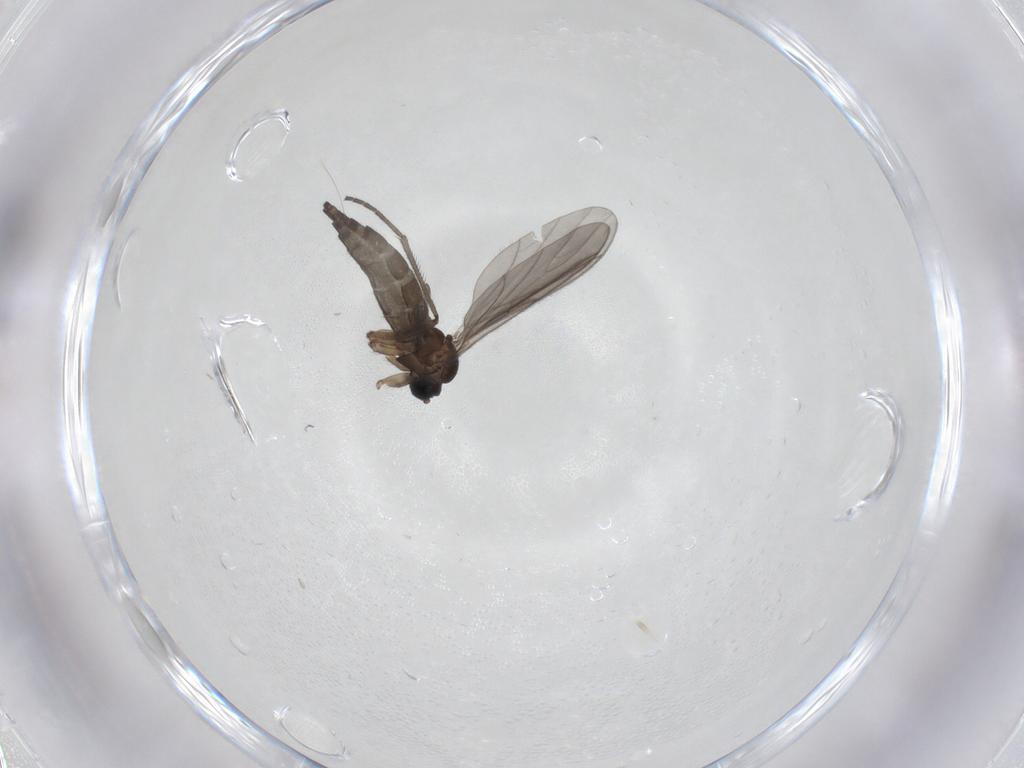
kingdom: Animalia
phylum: Arthropoda
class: Insecta
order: Diptera
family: Sciaridae
